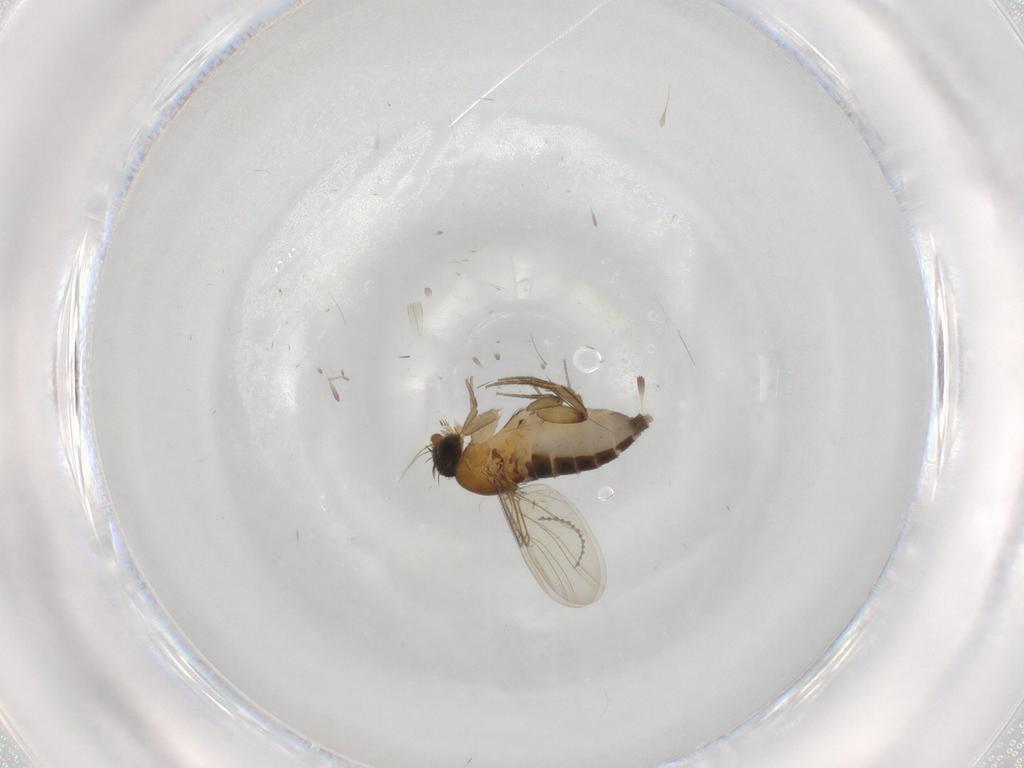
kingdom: Animalia
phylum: Arthropoda
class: Insecta
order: Diptera
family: Phoridae
